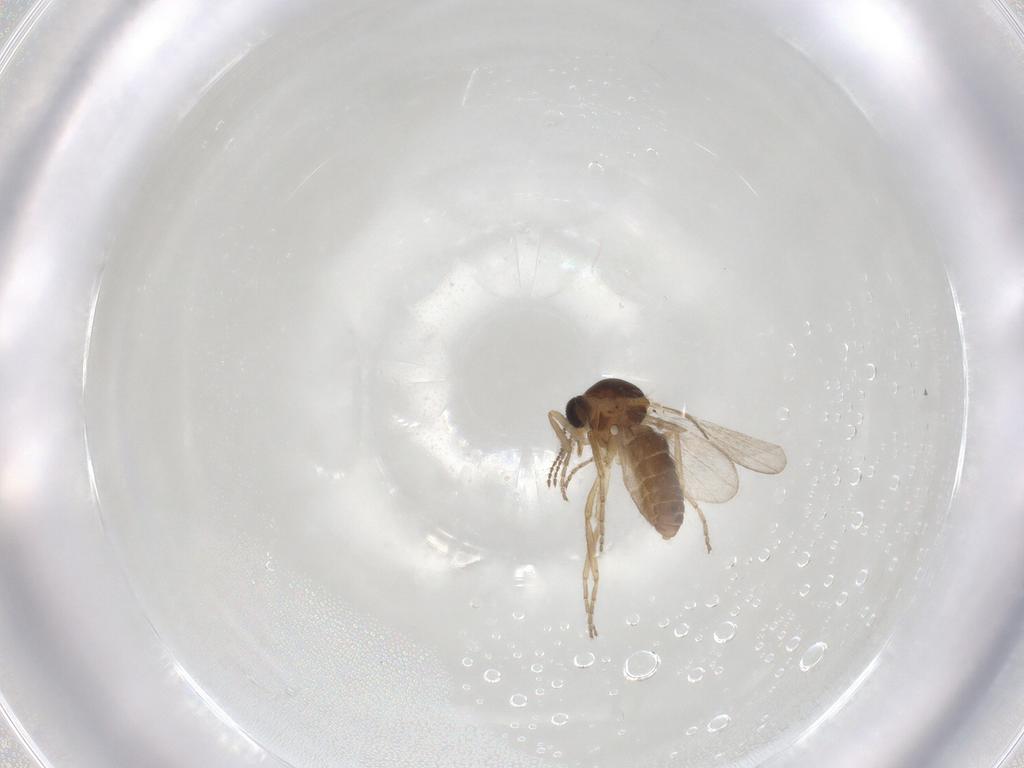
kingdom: Animalia
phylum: Arthropoda
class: Insecta
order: Diptera
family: Ceratopogonidae
